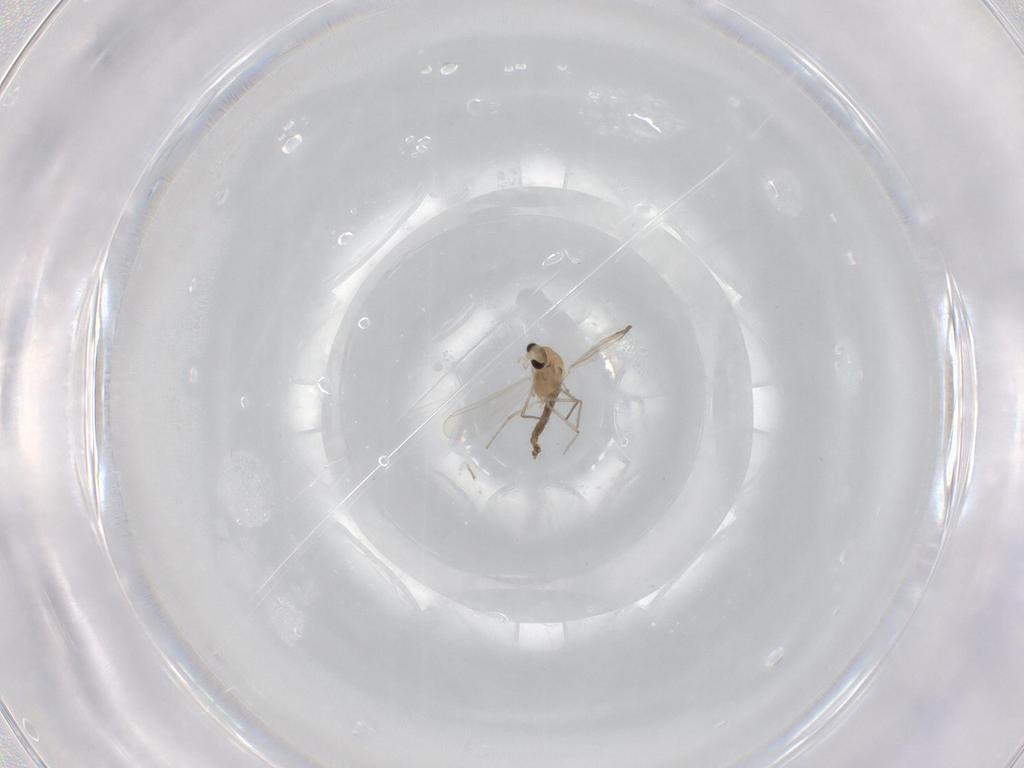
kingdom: Animalia
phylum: Arthropoda
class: Insecta
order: Diptera
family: Chironomidae
